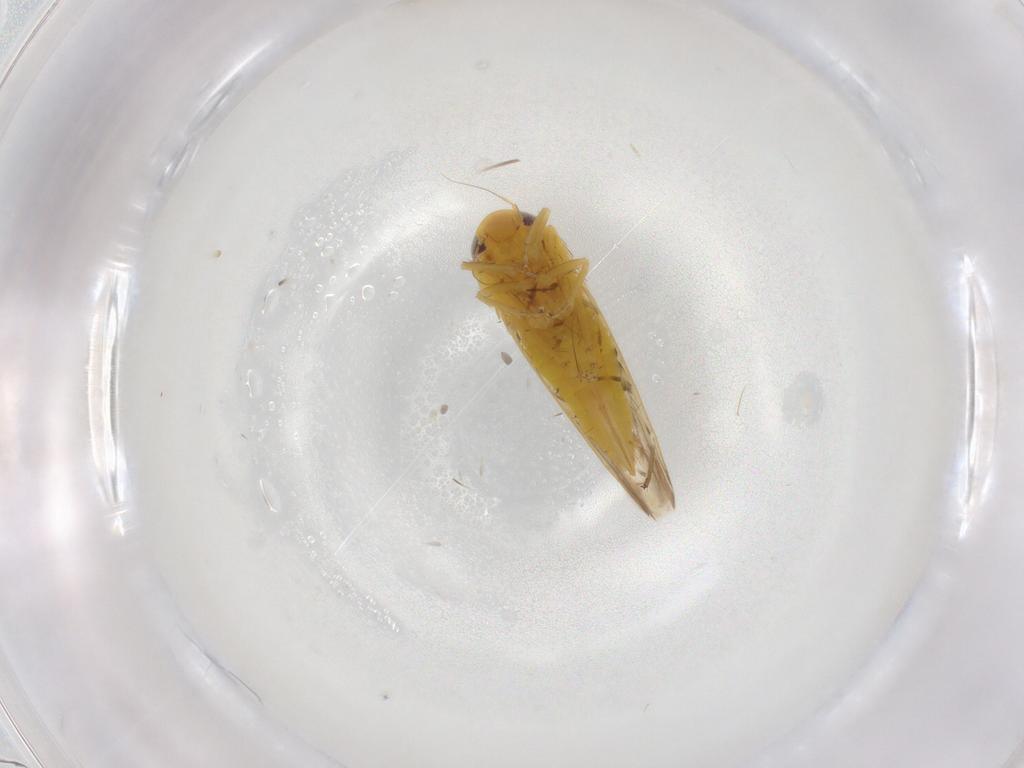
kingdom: Animalia
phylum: Arthropoda
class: Insecta
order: Hemiptera
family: Cicadellidae
